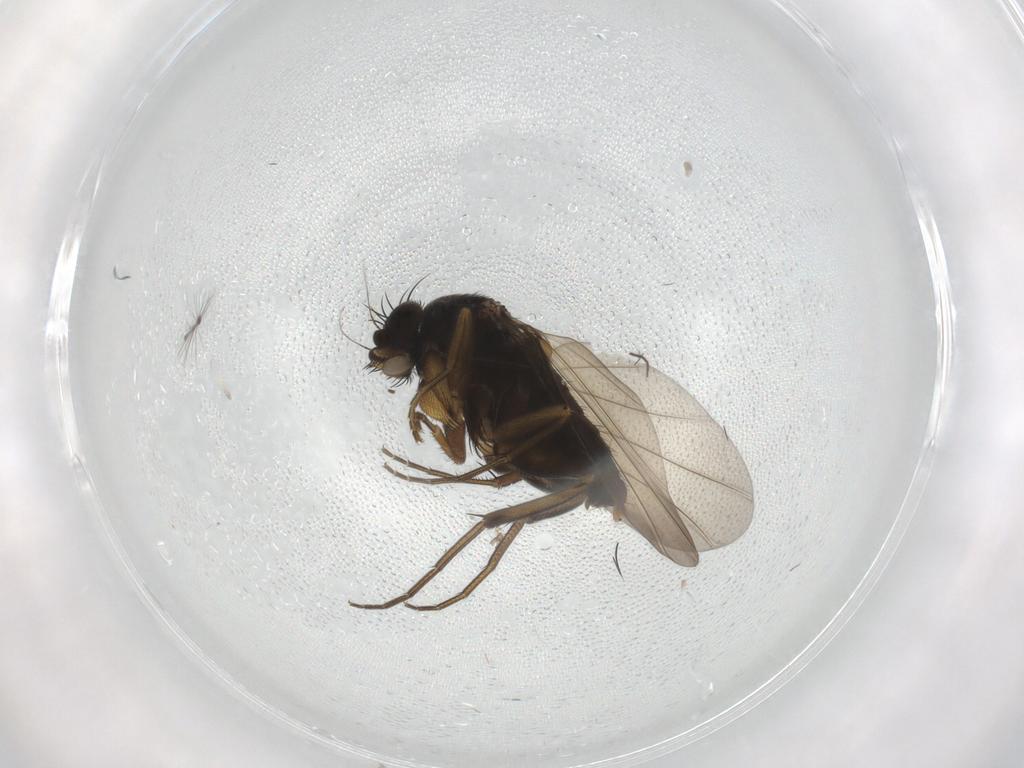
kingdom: Animalia
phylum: Arthropoda
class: Insecta
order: Diptera
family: Phoridae
